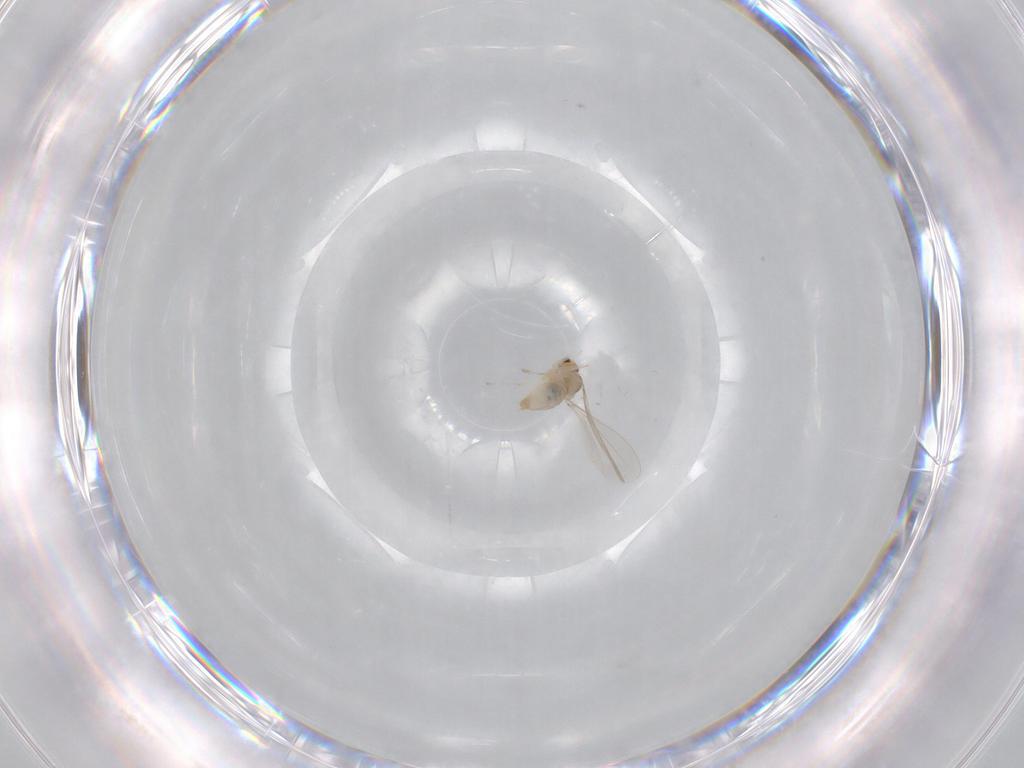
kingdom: Animalia
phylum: Arthropoda
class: Insecta
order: Diptera
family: Cecidomyiidae
